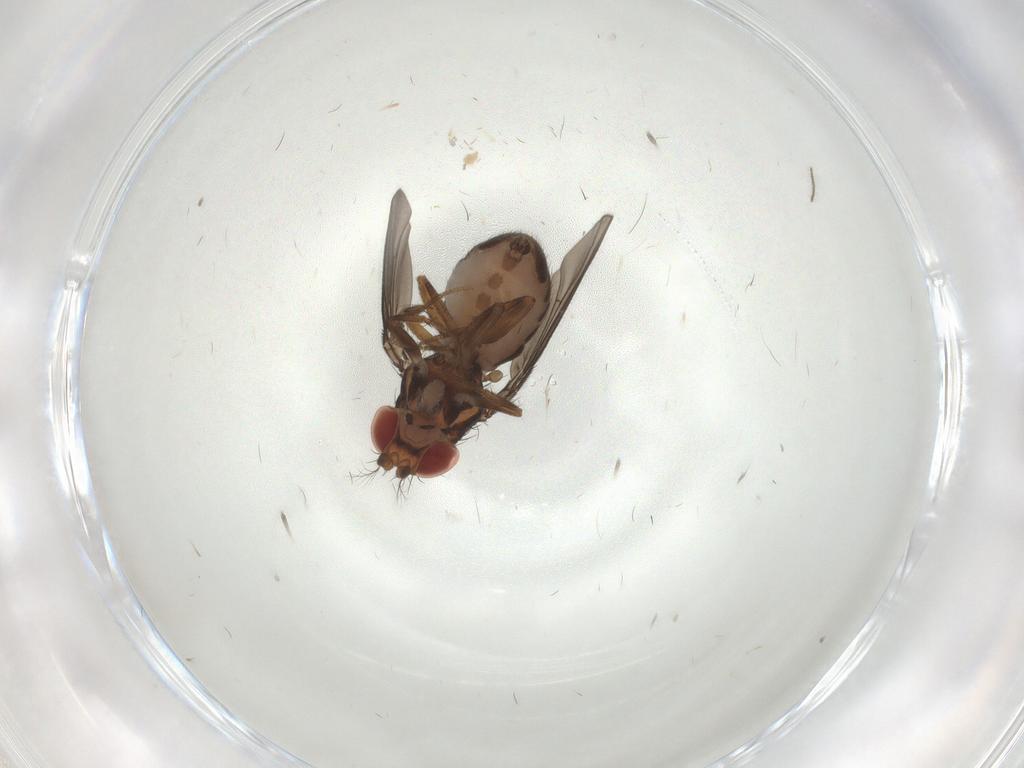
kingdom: Animalia
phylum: Arthropoda
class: Insecta
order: Diptera
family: Drosophilidae
